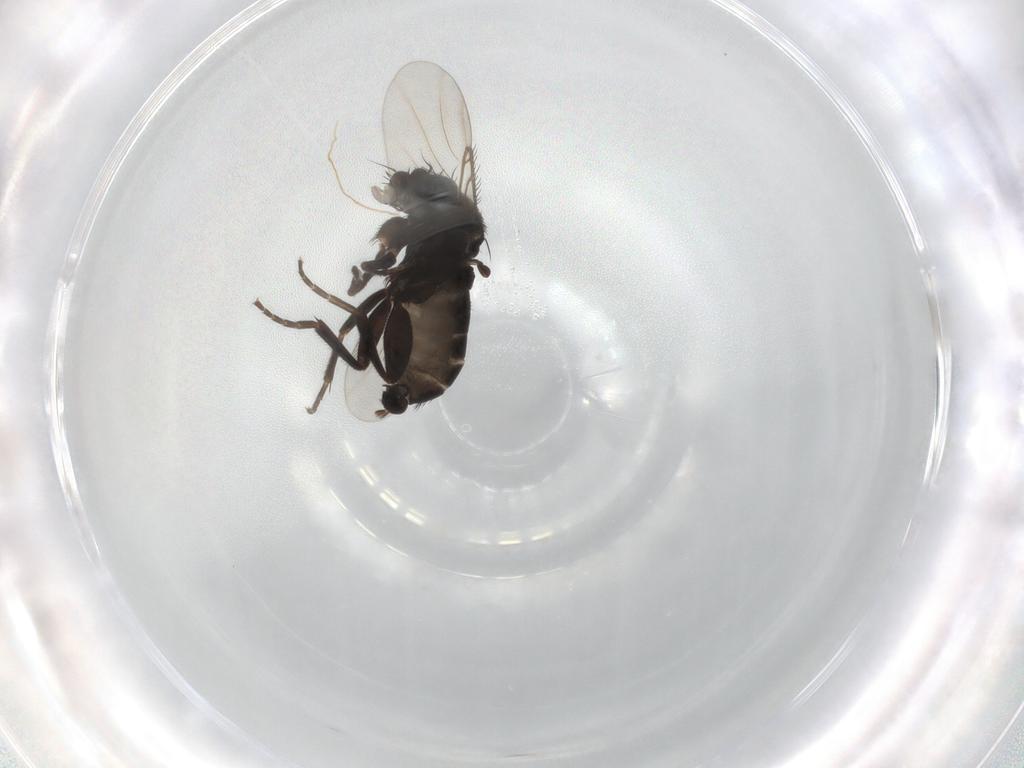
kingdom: Animalia
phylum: Arthropoda
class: Insecta
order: Diptera
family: Phoridae
